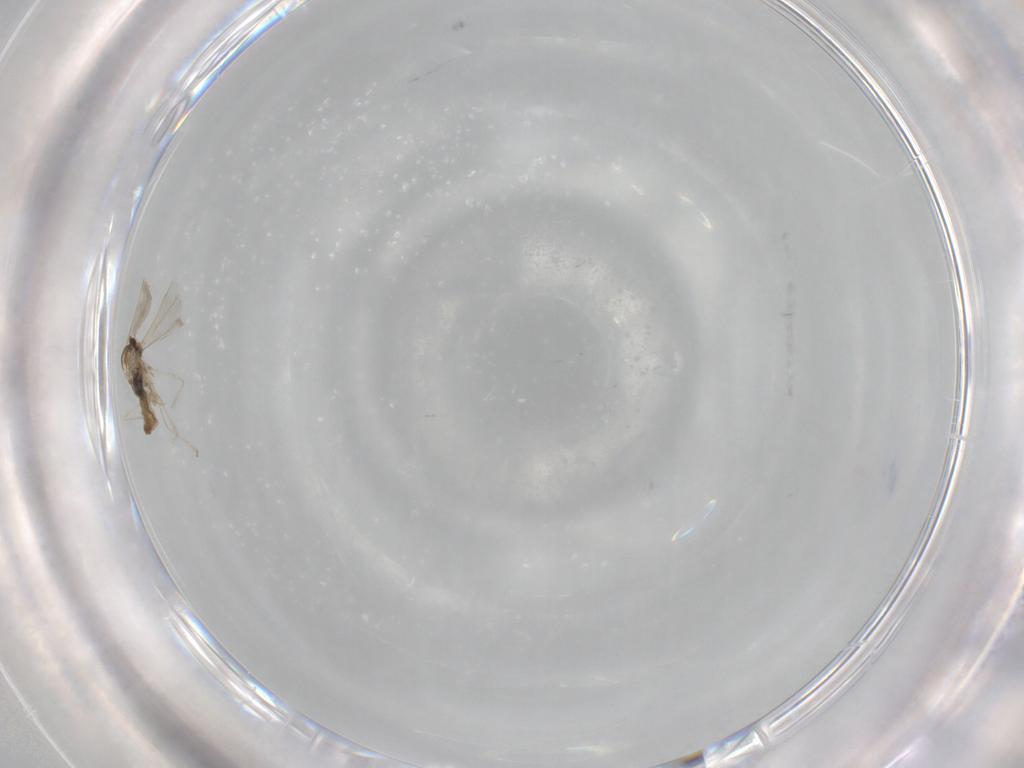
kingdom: Animalia
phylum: Arthropoda
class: Insecta
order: Diptera
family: Cecidomyiidae
